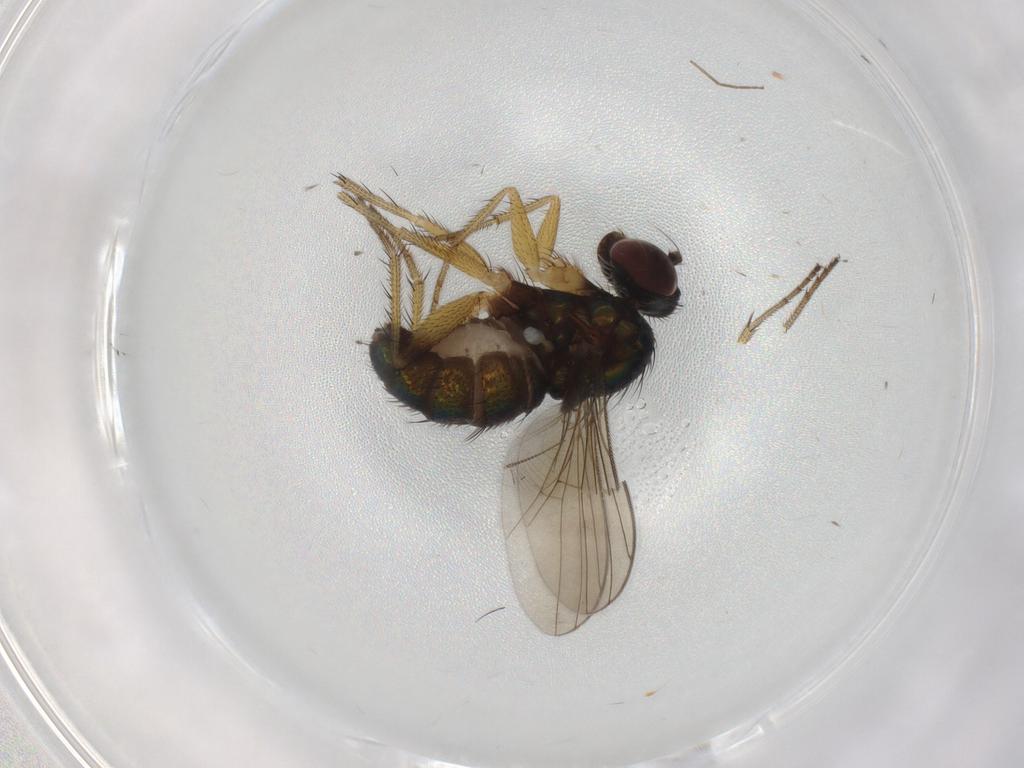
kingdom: Animalia
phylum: Arthropoda
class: Insecta
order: Diptera
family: Dolichopodidae
